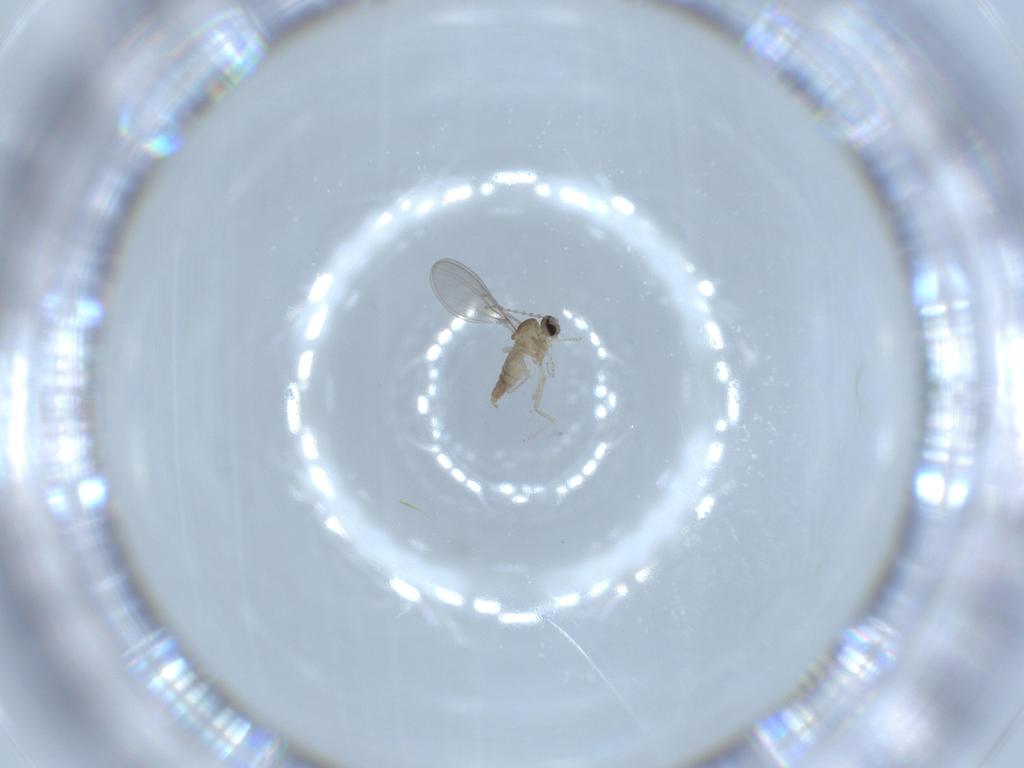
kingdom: Animalia
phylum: Arthropoda
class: Insecta
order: Diptera
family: Cecidomyiidae
